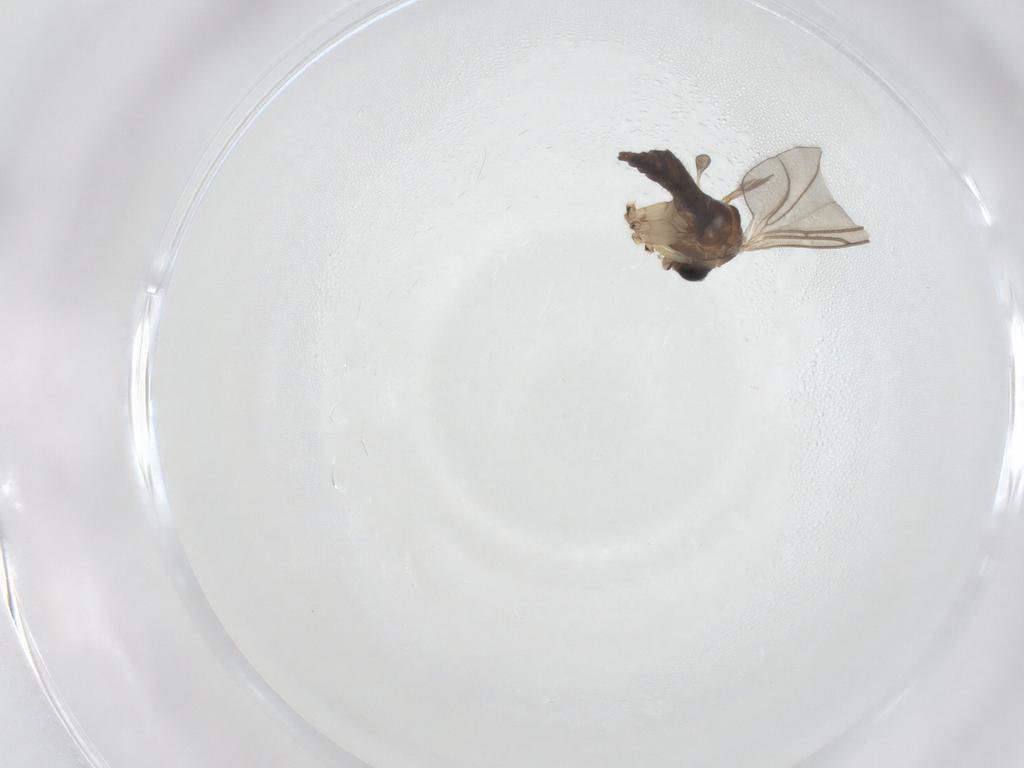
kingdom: Animalia
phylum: Arthropoda
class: Insecta
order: Diptera
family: Sciaridae
